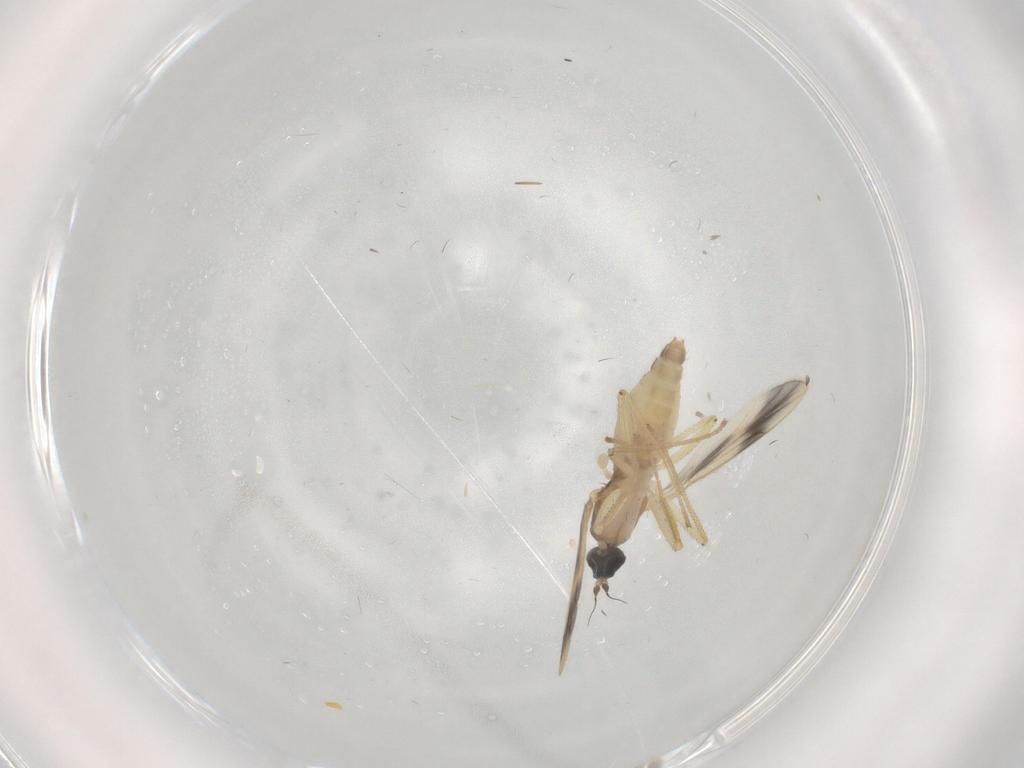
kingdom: Animalia
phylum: Arthropoda
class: Insecta
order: Diptera
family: Empididae
